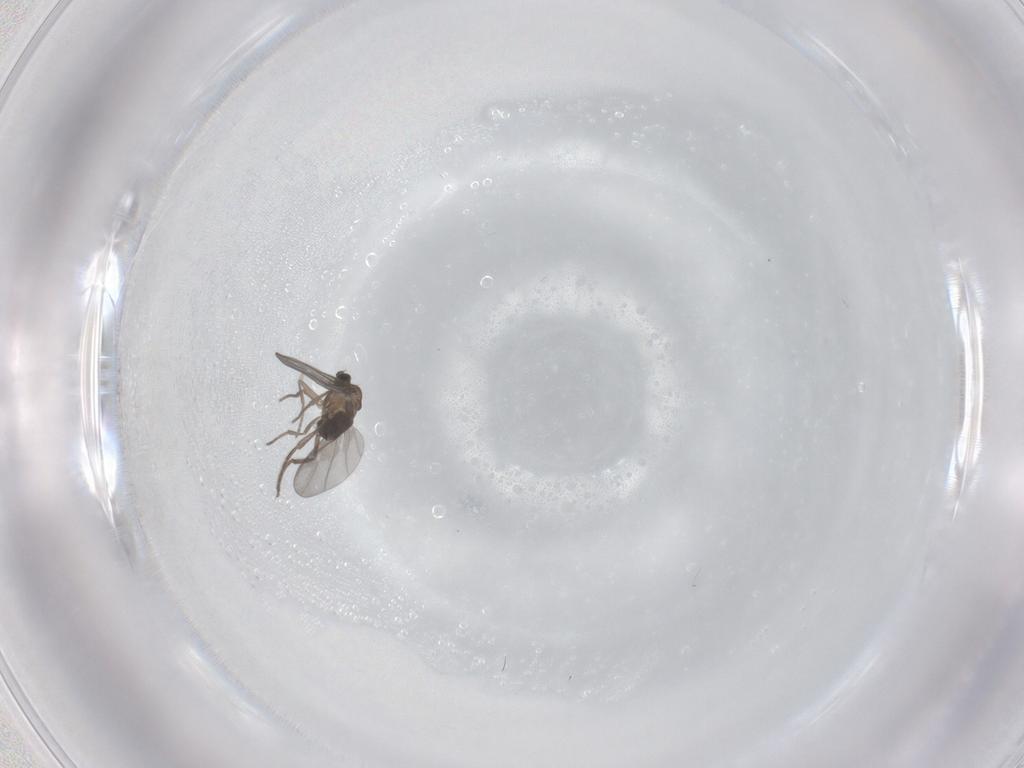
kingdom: Animalia
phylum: Arthropoda
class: Insecta
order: Diptera
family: Phoridae
